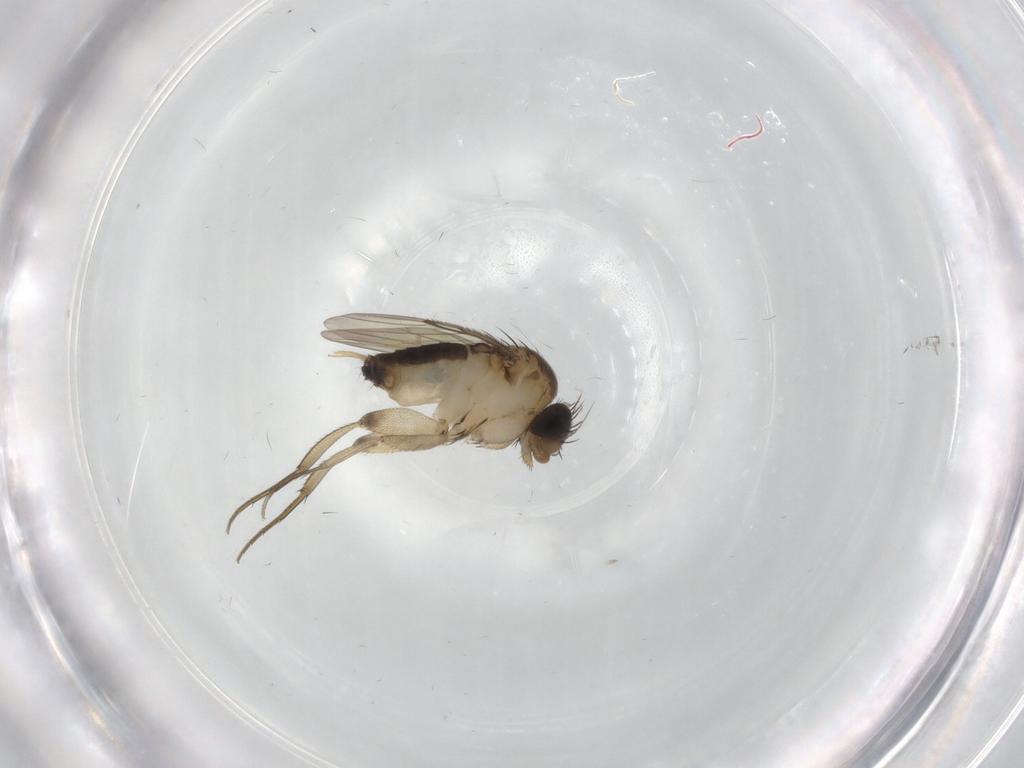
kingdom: Animalia
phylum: Arthropoda
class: Insecta
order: Diptera
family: Phoridae
